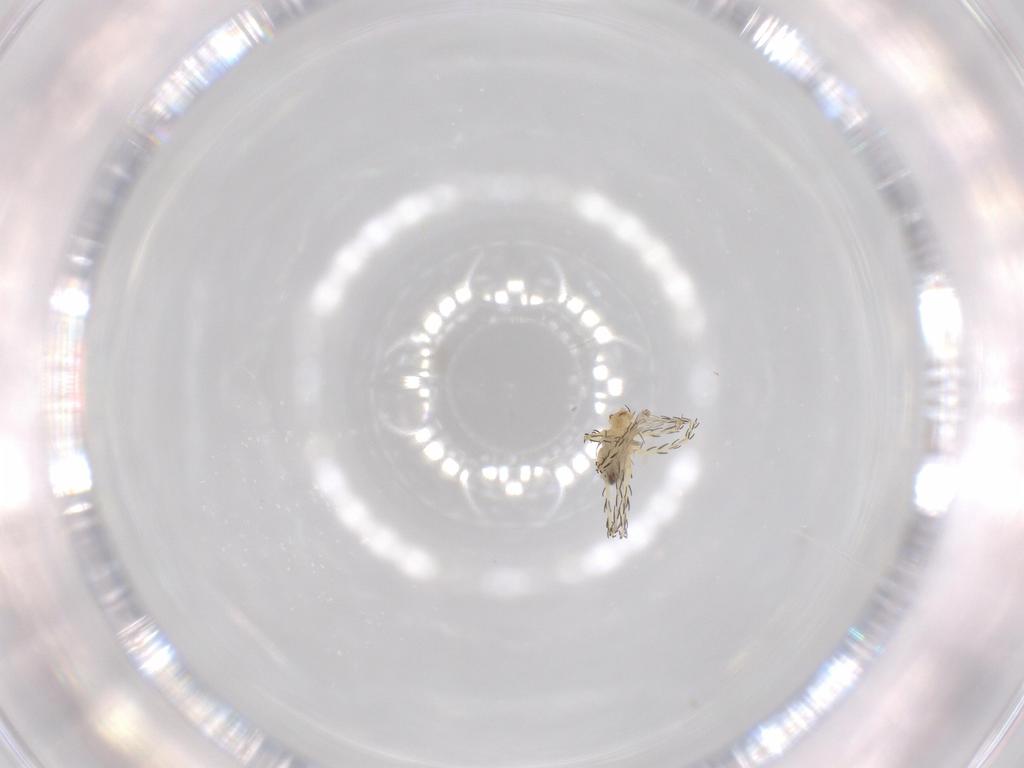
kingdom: Animalia
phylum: Arthropoda
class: Arachnida
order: Trombidiformes
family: Erythraeidae
